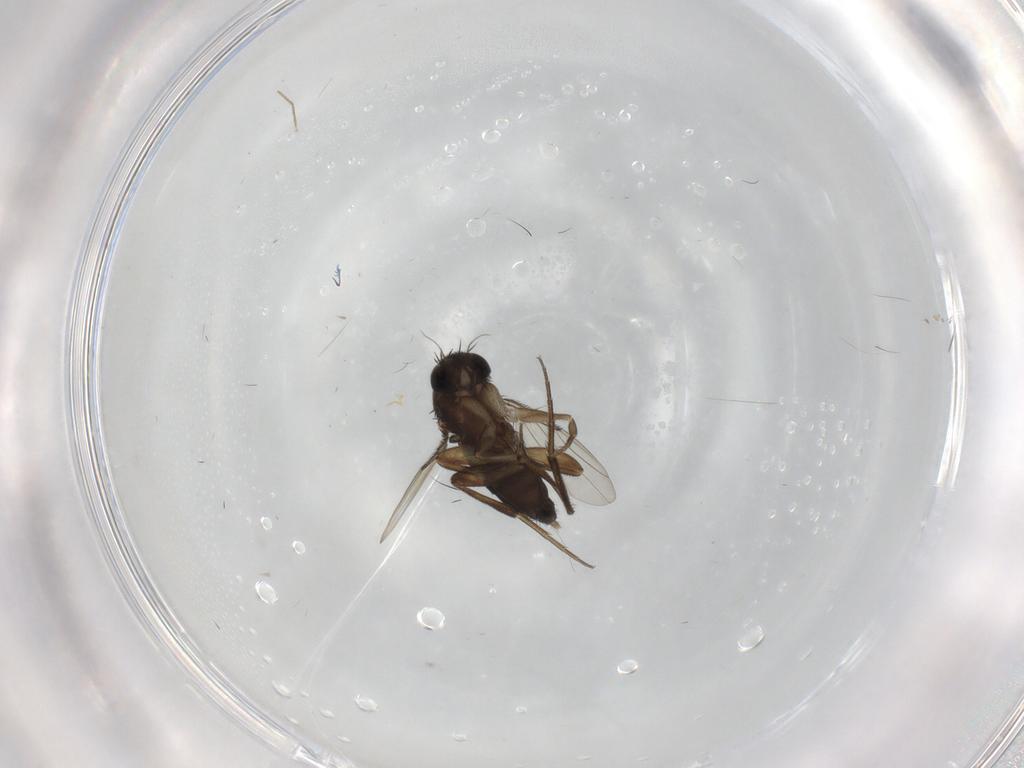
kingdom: Animalia
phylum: Arthropoda
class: Insecta
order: Diptera
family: Phoridae
